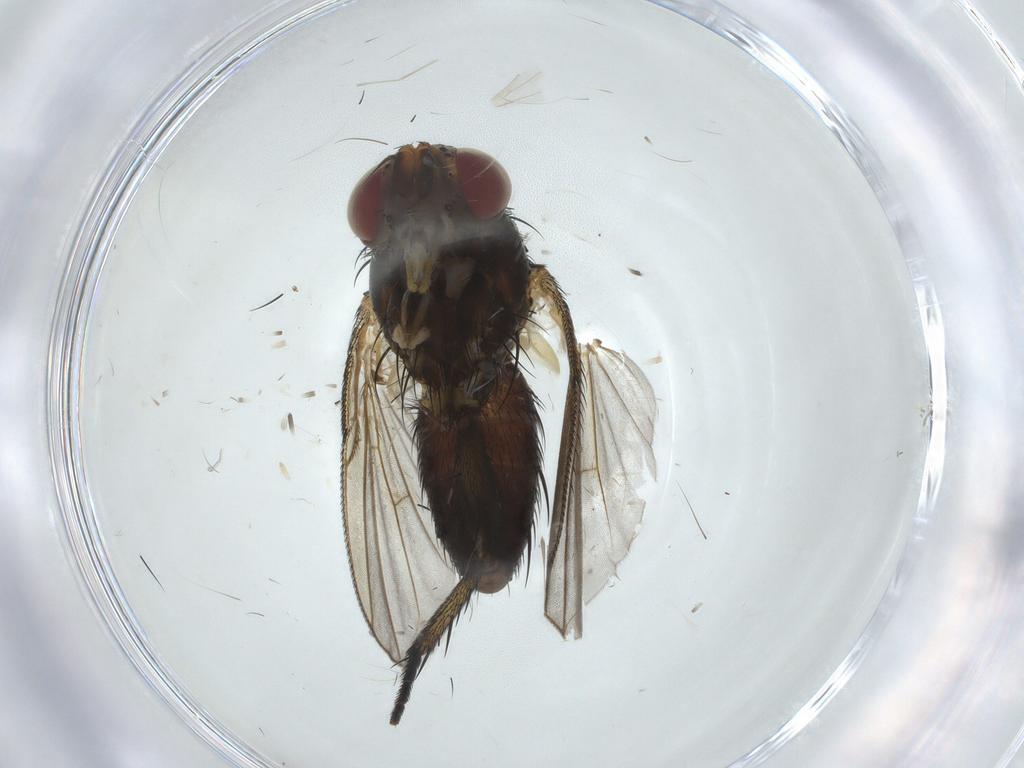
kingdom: Animalia
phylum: Arthropoda
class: Insecta
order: Diptera
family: Tachinidae
